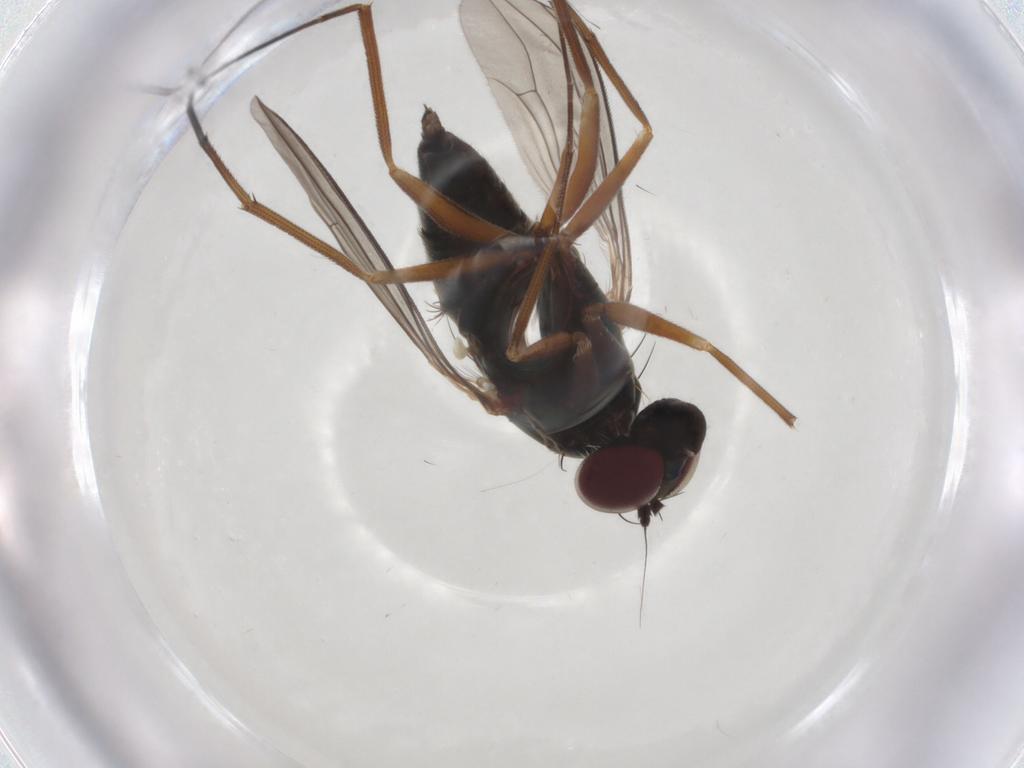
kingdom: Animalia
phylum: Arthropoda
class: Insecta
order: Diptera
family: Dolichopodidae
